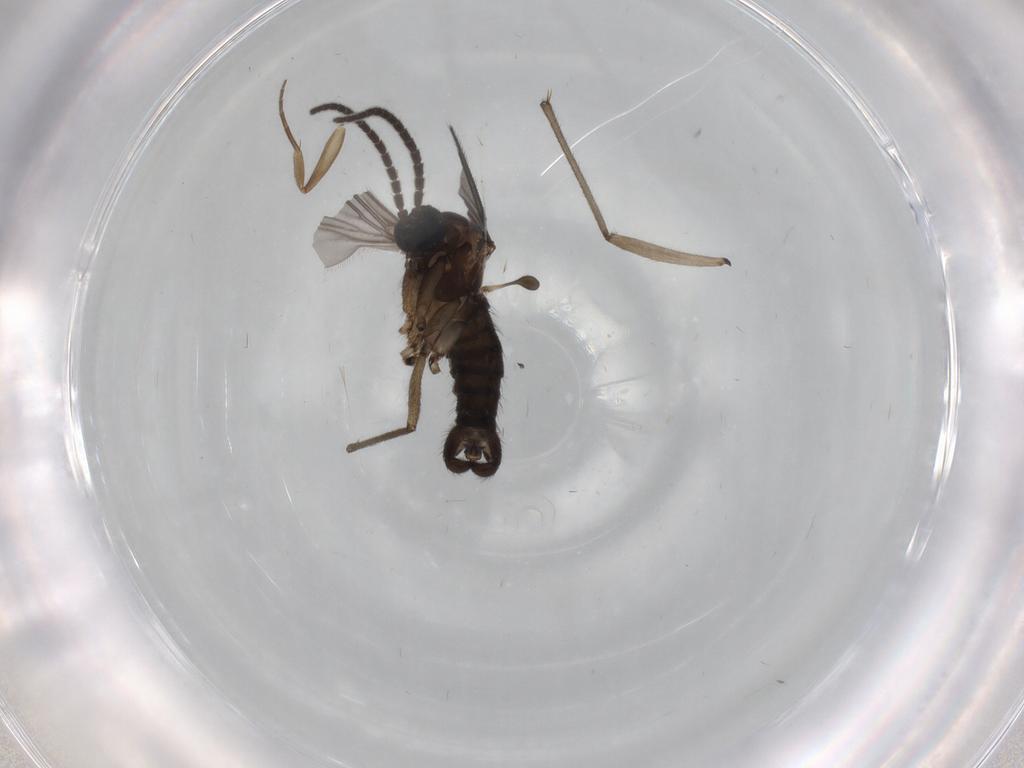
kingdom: Animalia
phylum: Arthropoda
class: Insecta
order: Diptera
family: Sciaridae
